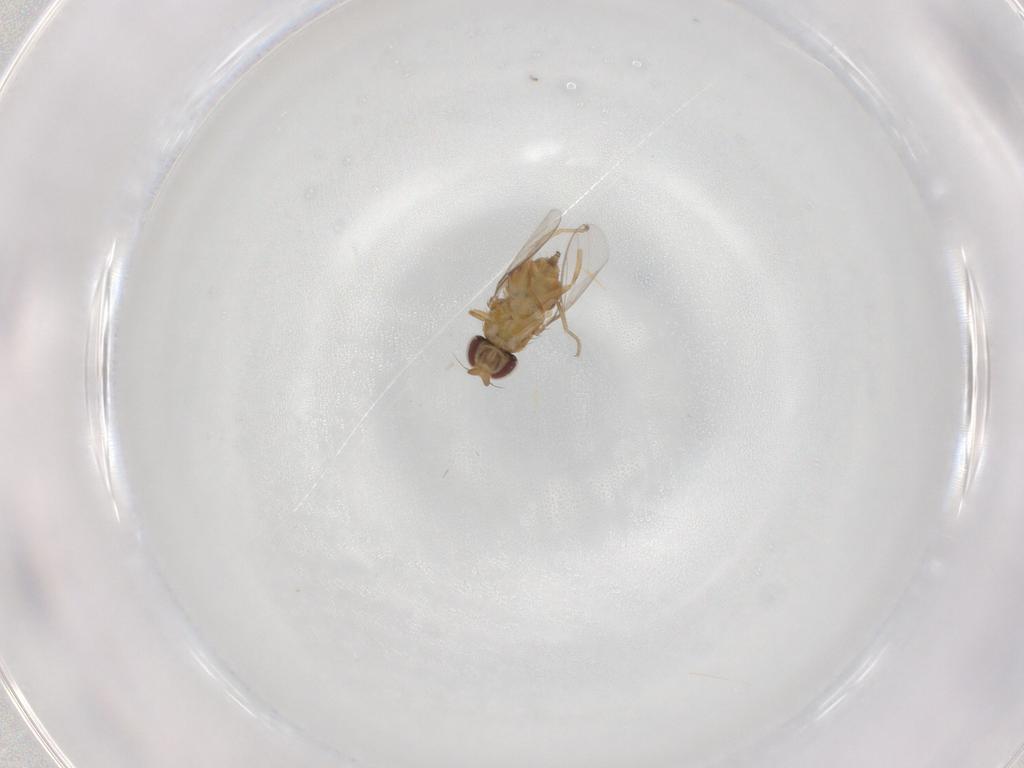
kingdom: Animalia
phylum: Arthropoda
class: Insecta
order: Diptera
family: Chloropidae
